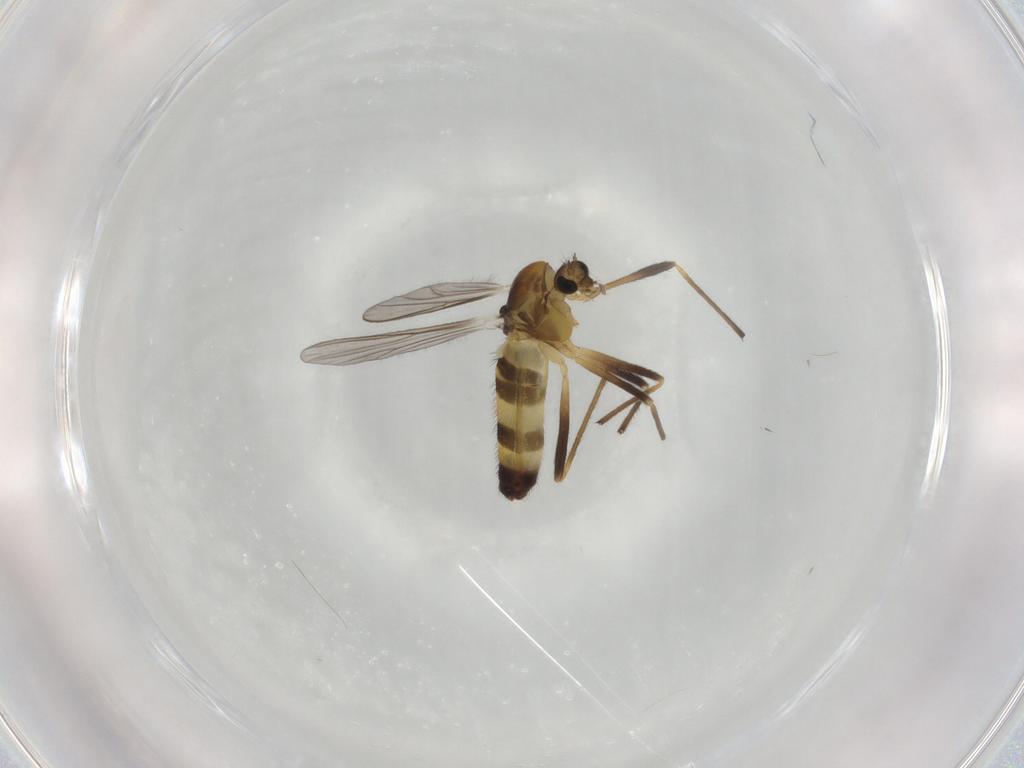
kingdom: Animalia
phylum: Arthropoda
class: Insecta
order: Diptera
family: Chironomidae
